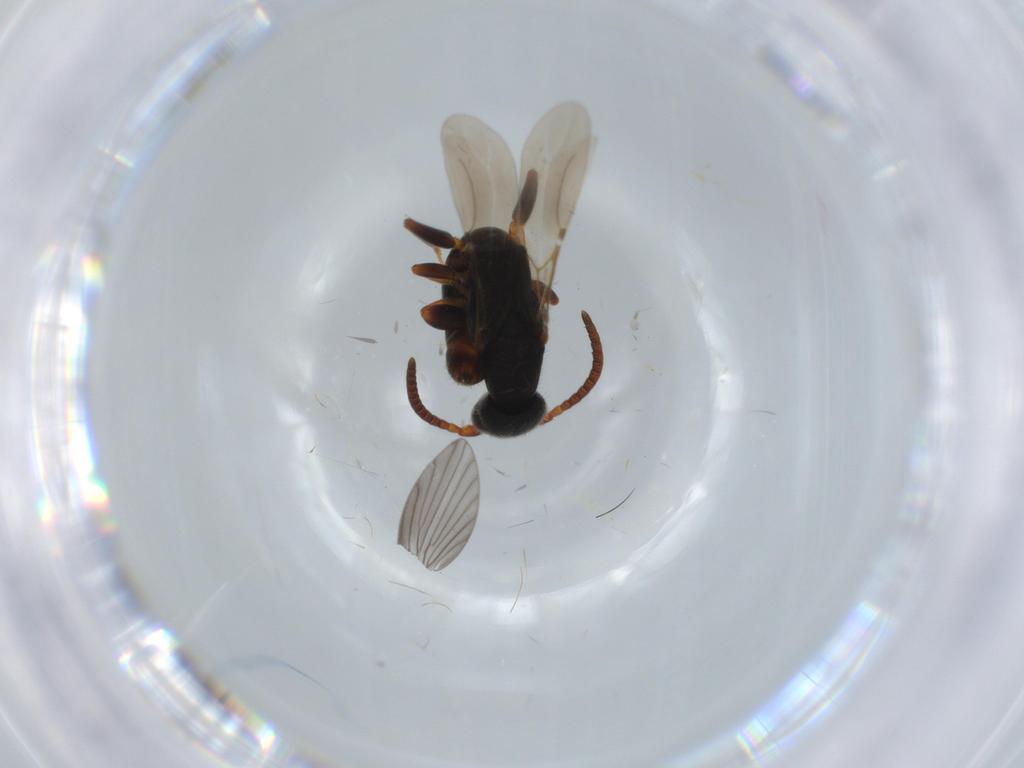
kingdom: Animalia
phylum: Arthropoda
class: Insecta
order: Hymenoptera
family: Bethylidae
